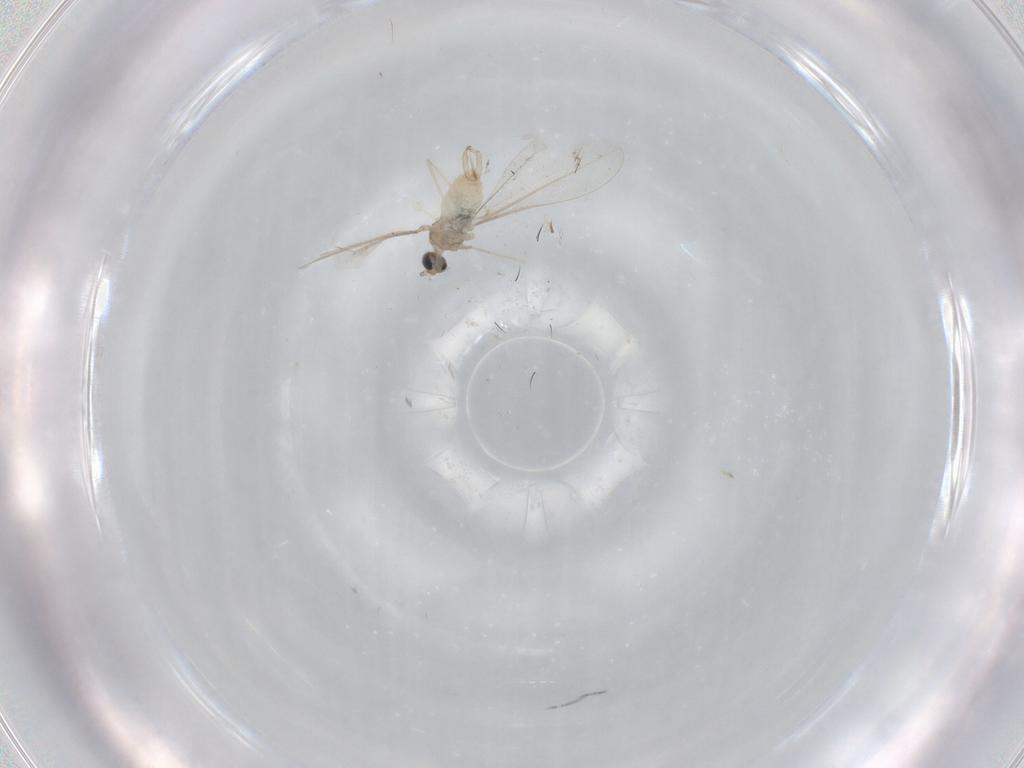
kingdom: Animalia
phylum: Arthropoda
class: Insecta
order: Diptera
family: Cecidomyiidae
